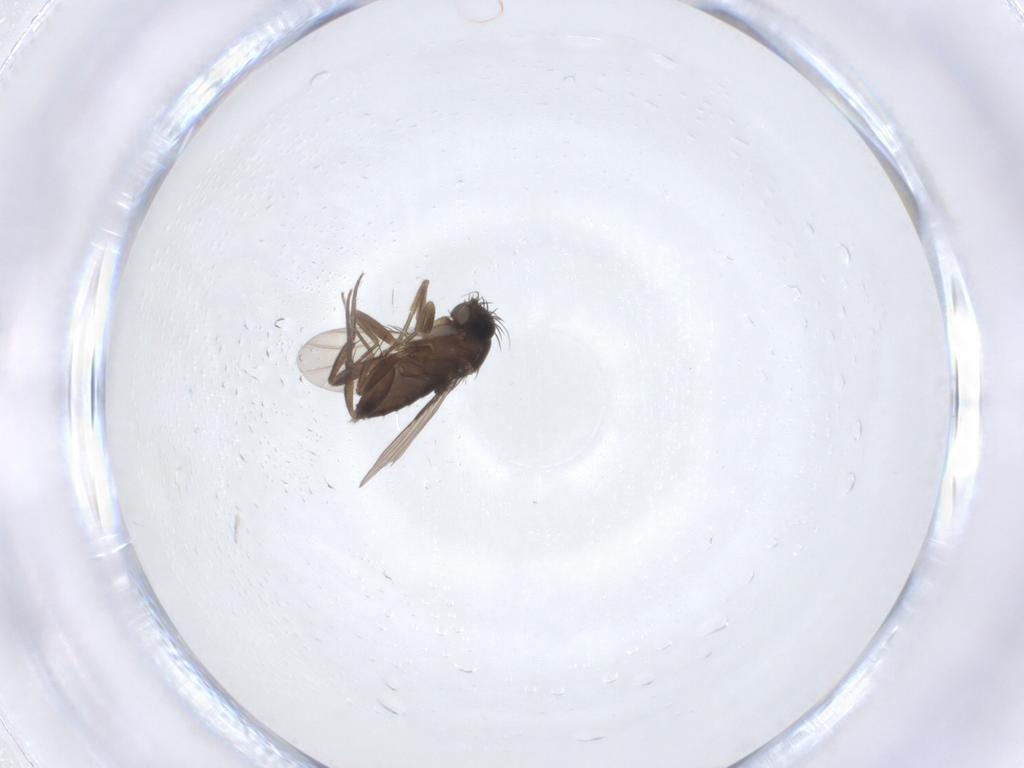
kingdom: Animalia
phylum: Arthropoda
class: Insecta
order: Diptera
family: Phoridae
